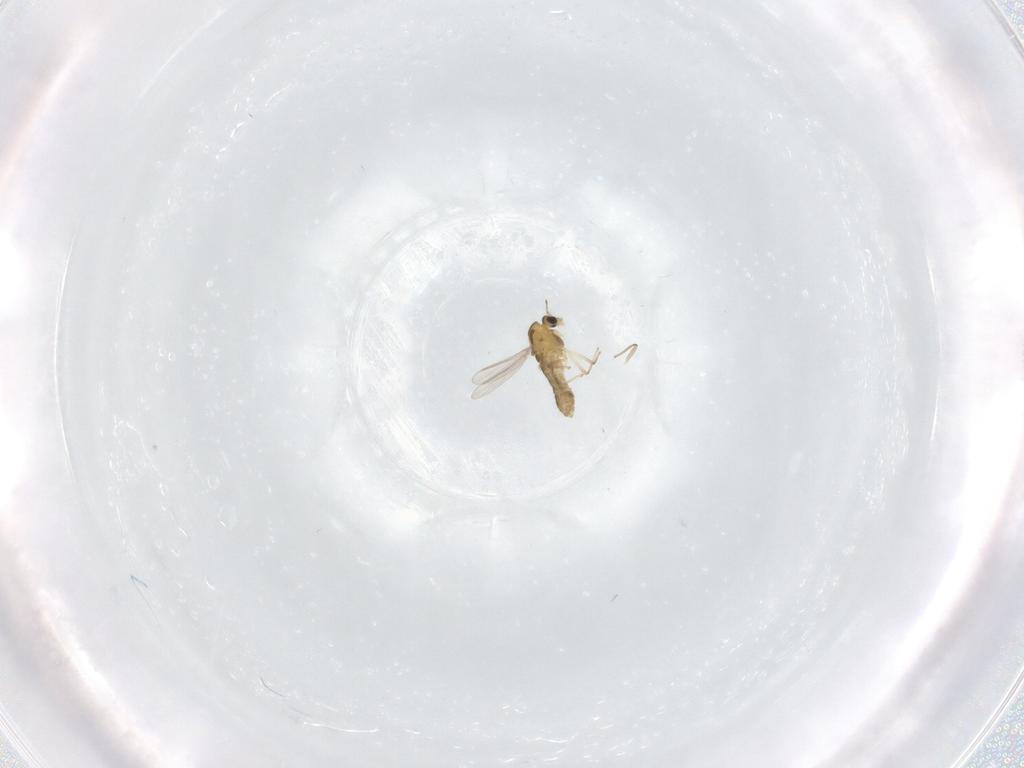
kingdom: Animalia
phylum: Arthropoda
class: Insecta
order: Diptera
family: Chironomidae
